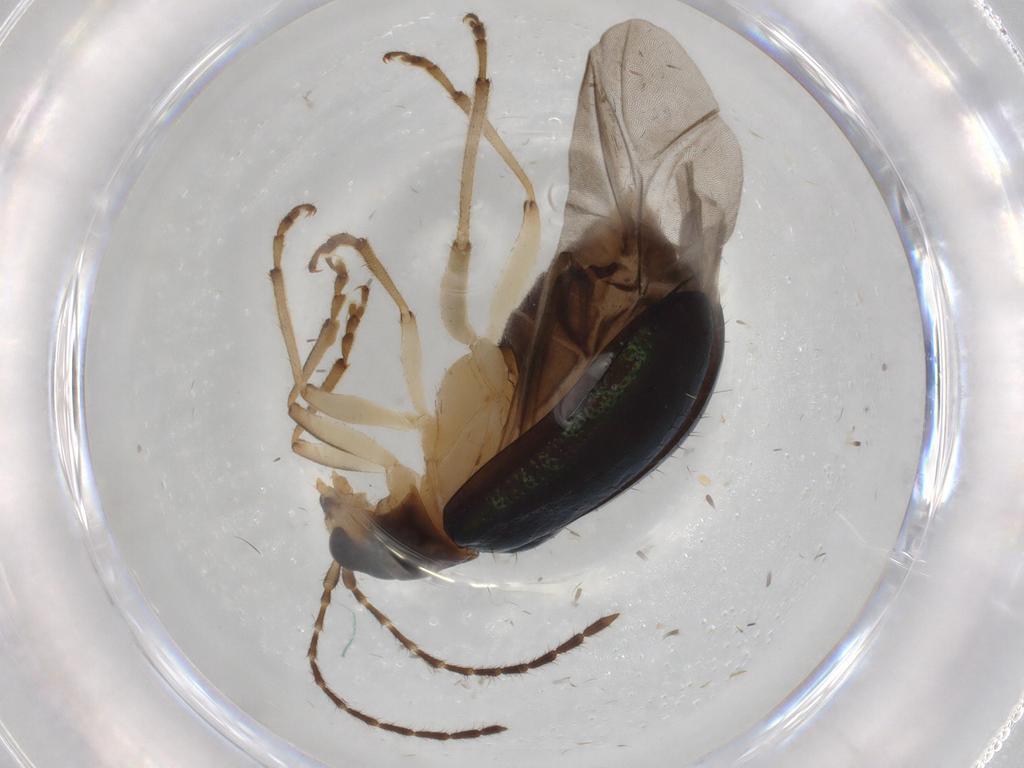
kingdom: Animalia
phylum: Arthropoda
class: Insecta
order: Coleoptera
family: Chrysomelidae
